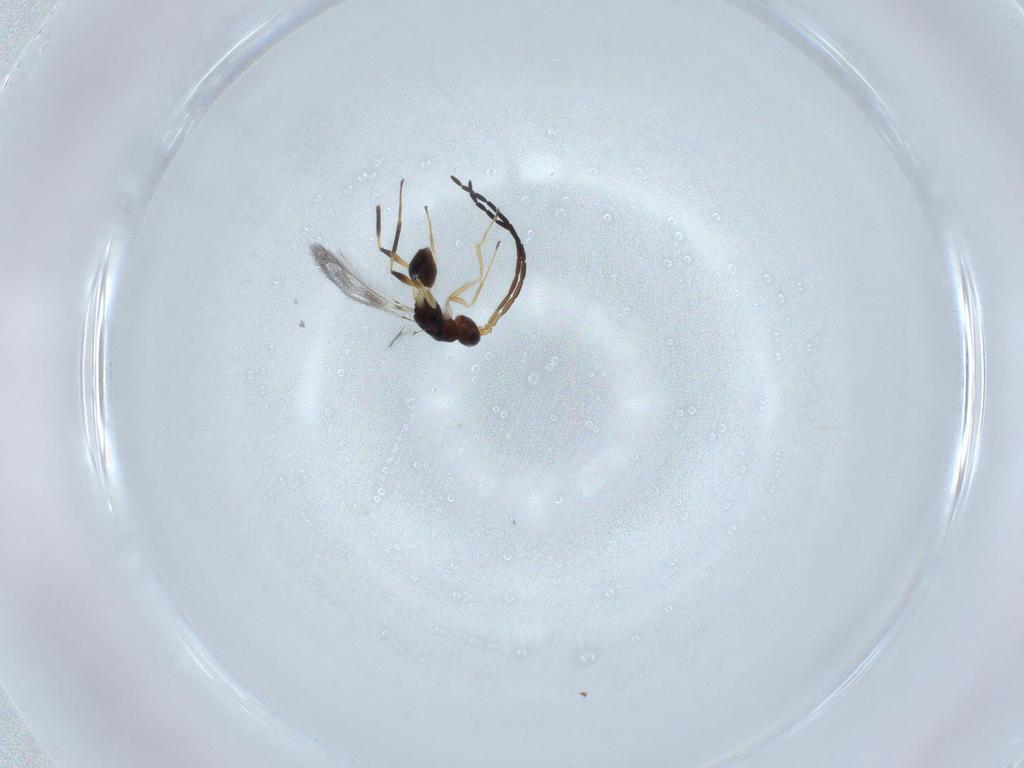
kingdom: Animalia
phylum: Arthropoda
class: Insecta
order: Hymenoptera
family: Mymaridae
